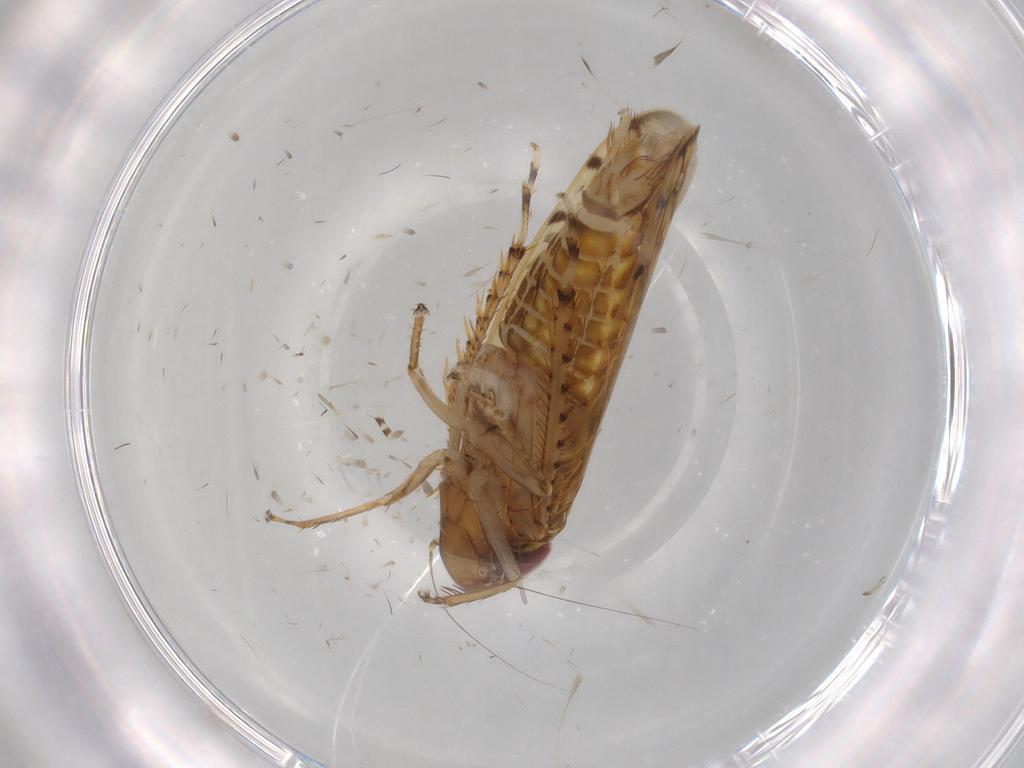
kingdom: Animalia
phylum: Arthropoda
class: Insecta
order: Hemiptera
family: Cicadellidae
